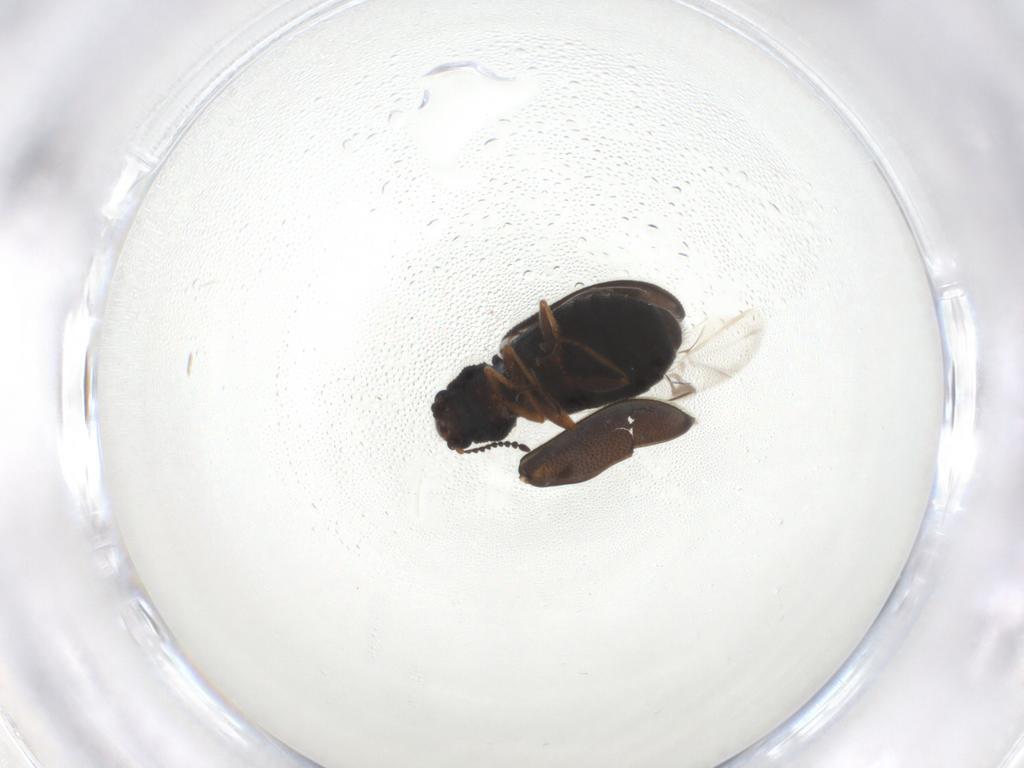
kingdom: Animalia
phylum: Arthropoda
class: Insecta
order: Coleoptera
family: Melyridae
